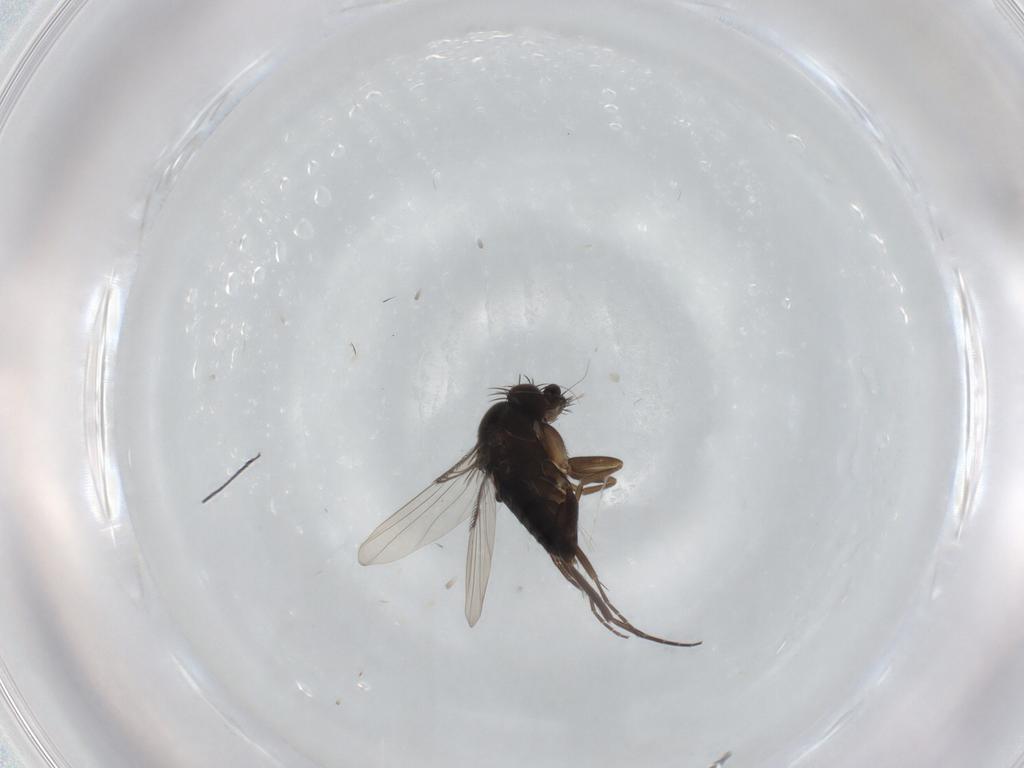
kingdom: Animalia
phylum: Arthropoda
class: Insecta
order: Diptera
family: Phoridae
